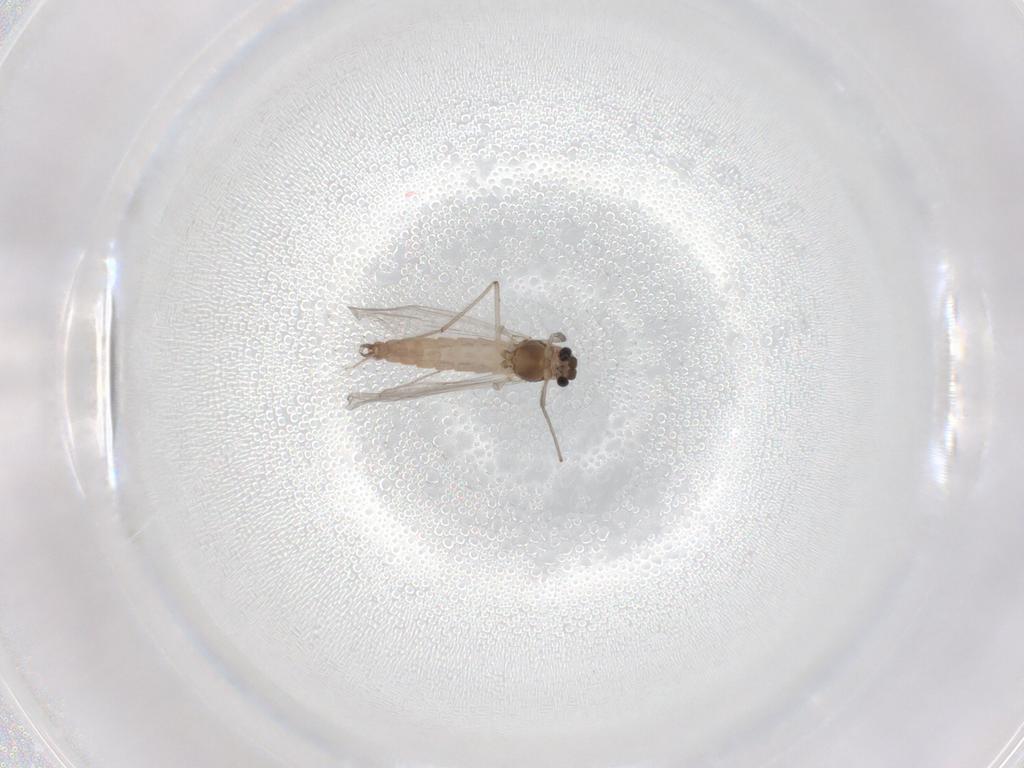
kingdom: Animalia
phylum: Arthropoda
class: Insecta
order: Diptera
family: Chironomidae
